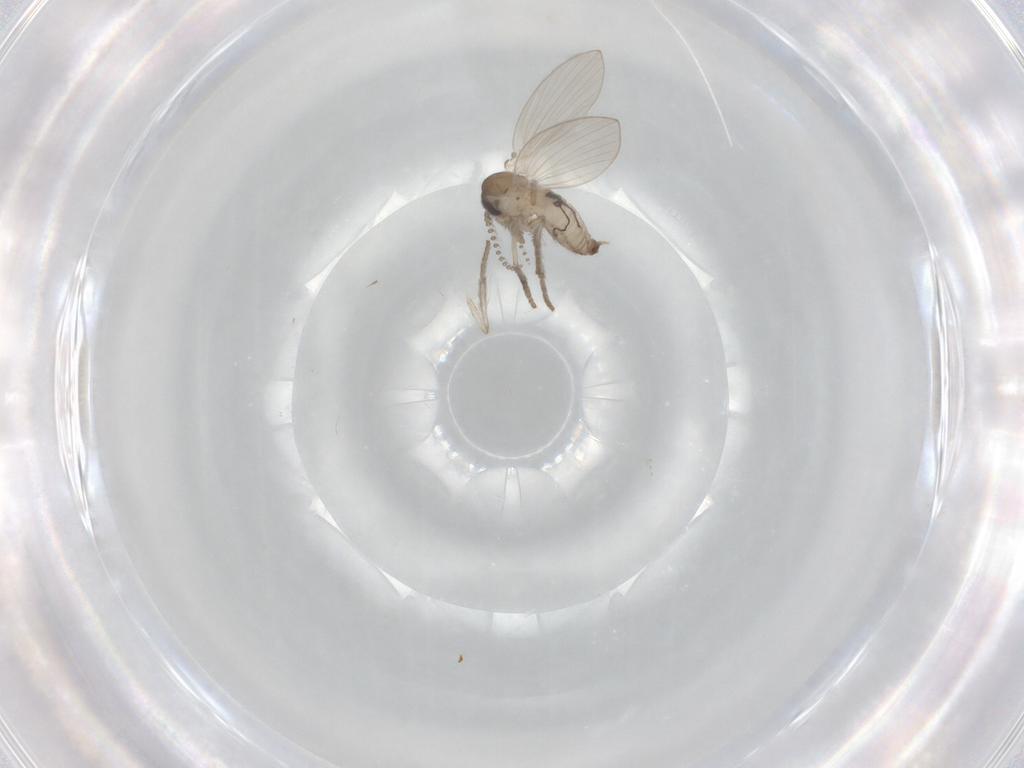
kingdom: Animalia
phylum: Arthropoda
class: Insecta
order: Diptera
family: Psychodidae
